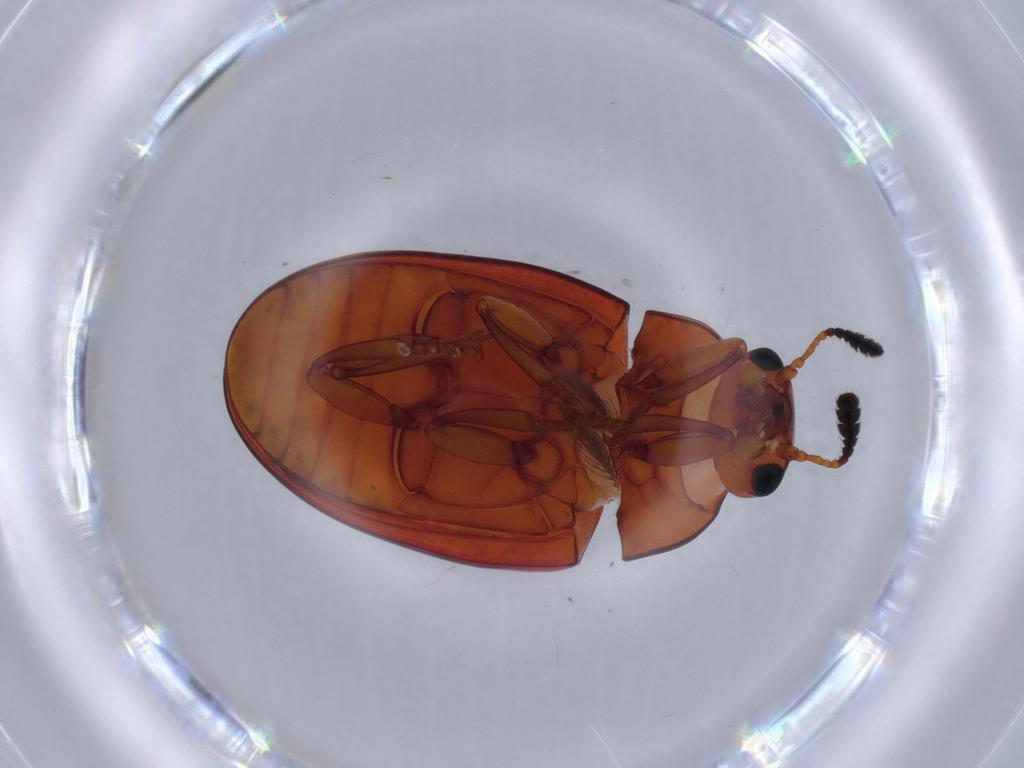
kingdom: Animalia
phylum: Arthropoda
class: Insecta
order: Coleoptera
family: Erotylidae
